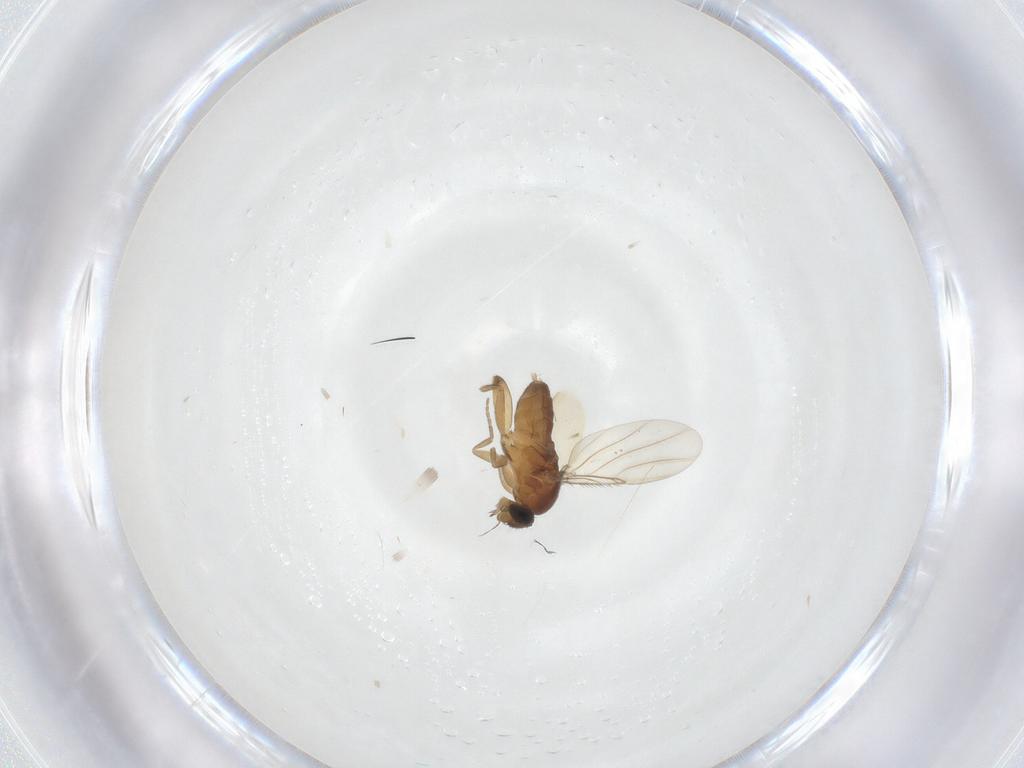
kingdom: Animalia
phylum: Arthropoda
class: Insecta
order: Diptera
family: Phoridae
